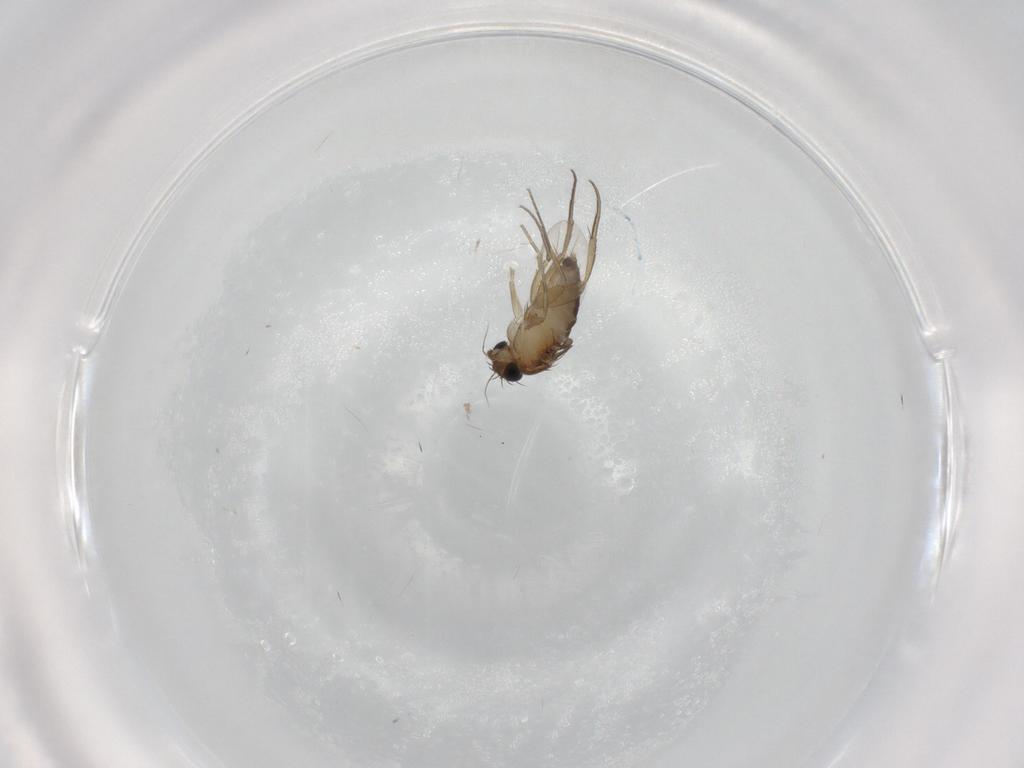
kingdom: Animalia
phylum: Arthropoda
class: Insecta
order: Diptera
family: Phoridae
